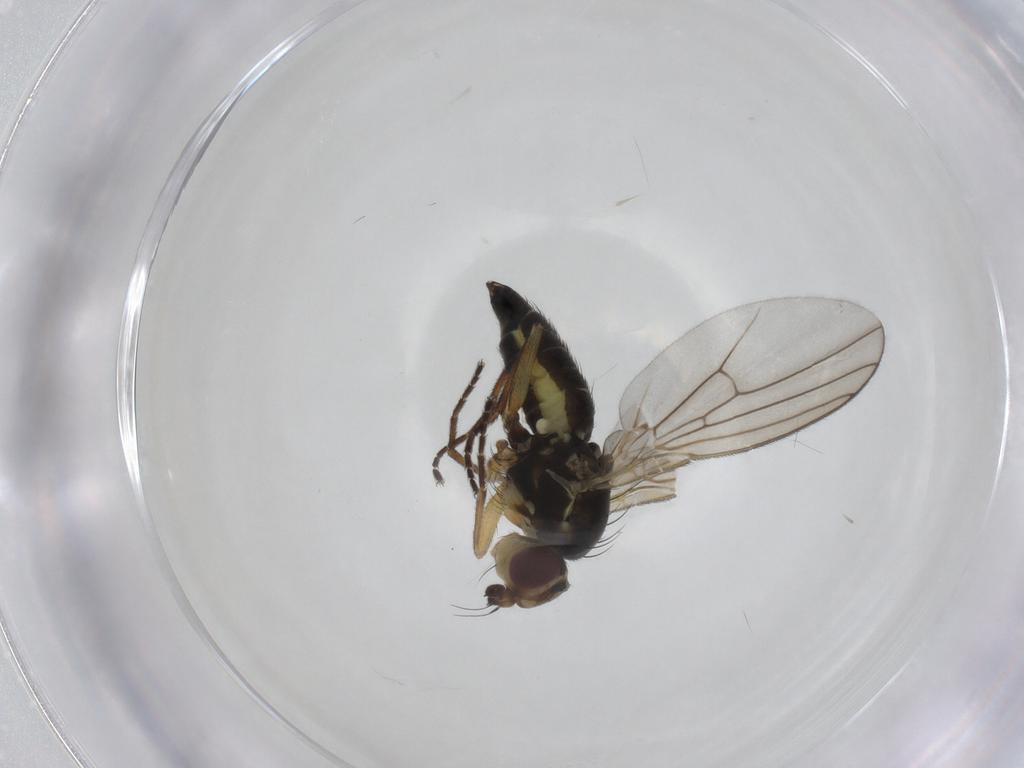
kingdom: Animalia
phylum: Arthropoda
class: Insecta
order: Diptera
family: Agromyzidae
